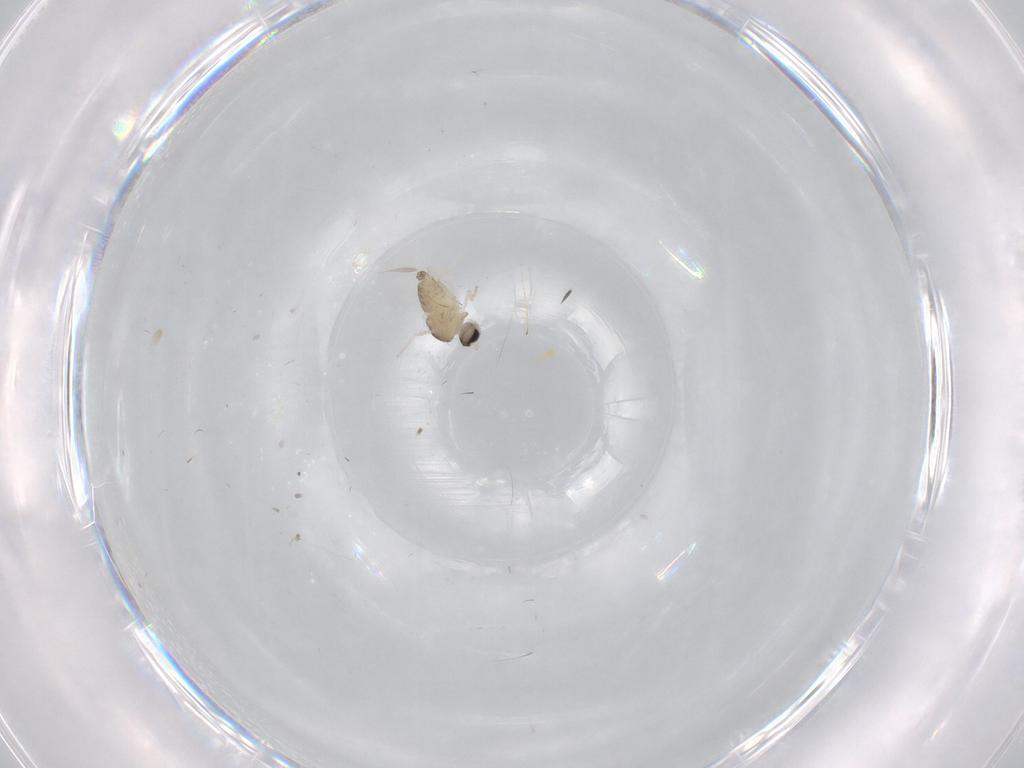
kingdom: Animalia
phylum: Arthropoda
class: Insecta
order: Diptera
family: Cecidomyiidae
